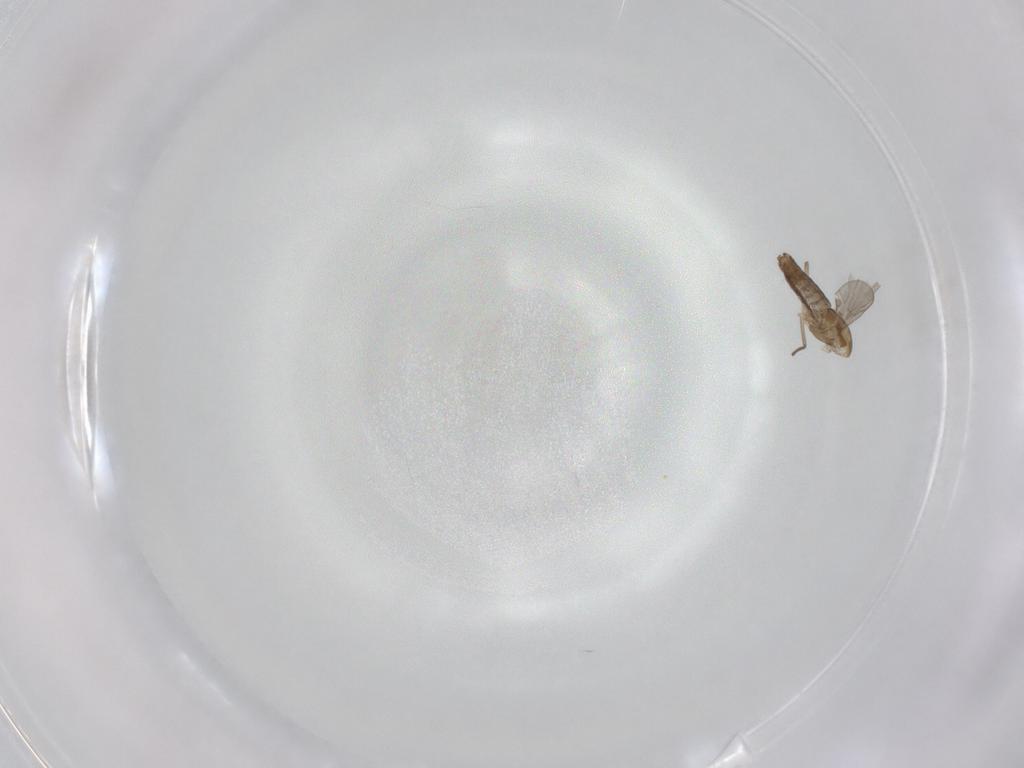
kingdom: Animalia
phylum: Arthropoda
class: Insecta
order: Diptera
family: Chironomidae
